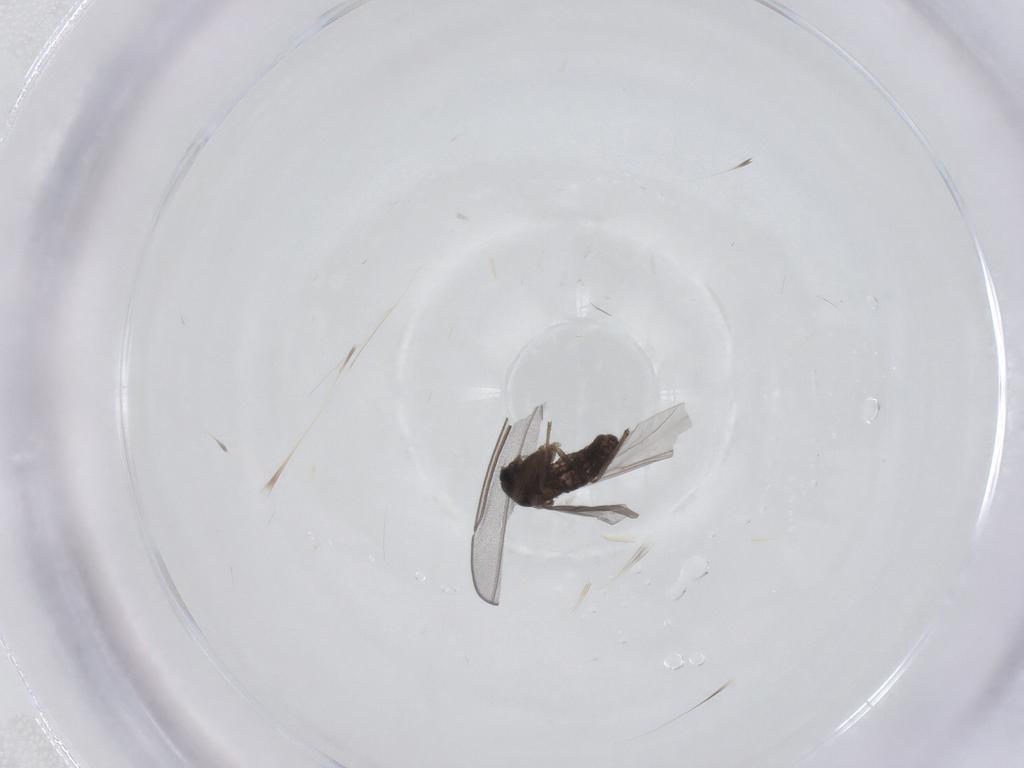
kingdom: Animalia
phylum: Arthropoda
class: Insecta
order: Diptera
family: Chironomidae
